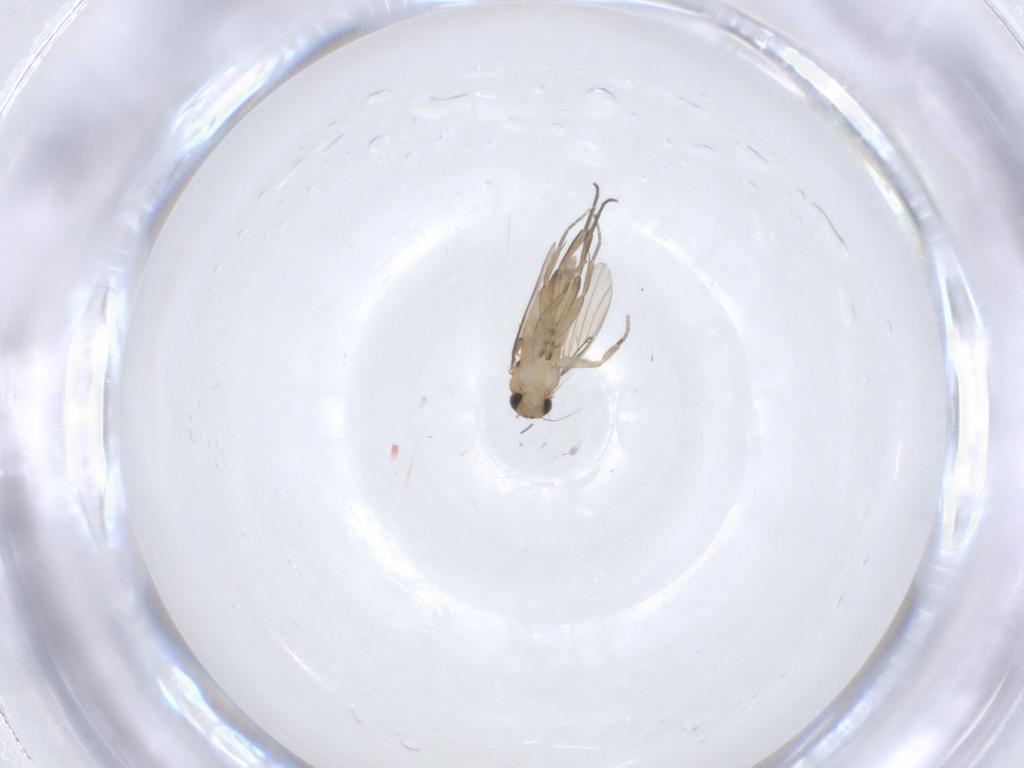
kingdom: Animalia
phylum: Arthropoda
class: Insecta
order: Diptera
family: Phoridae
